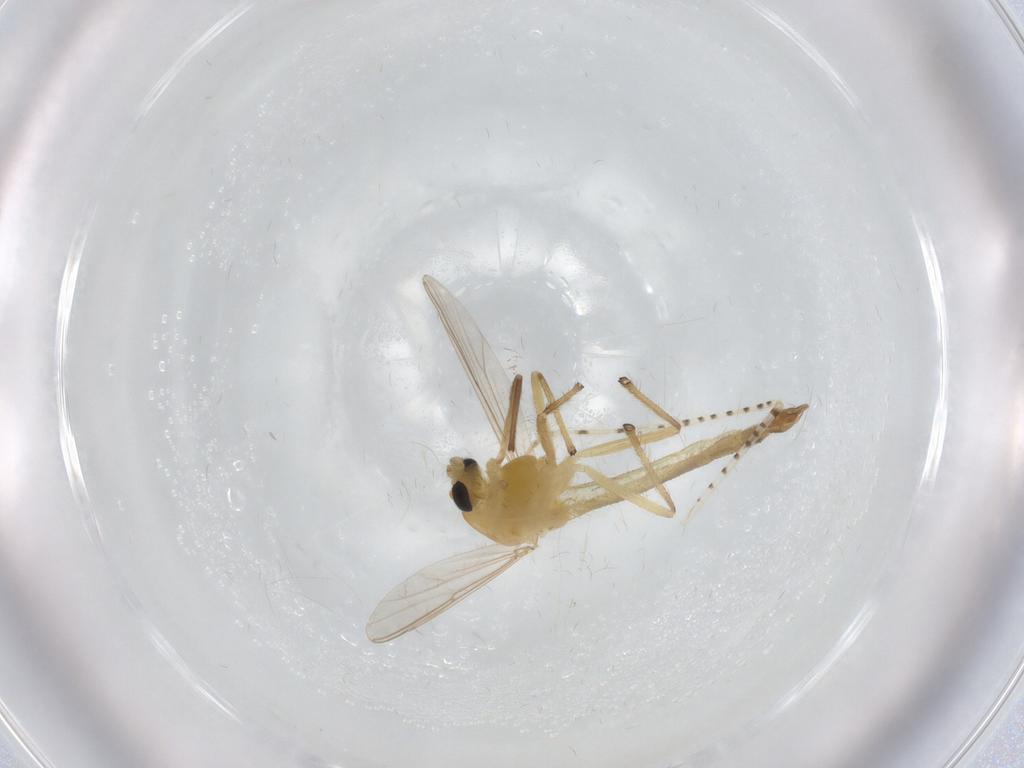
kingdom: Animalia
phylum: Arthropoda
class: Insecta
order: Diptera
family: Chironomidae
